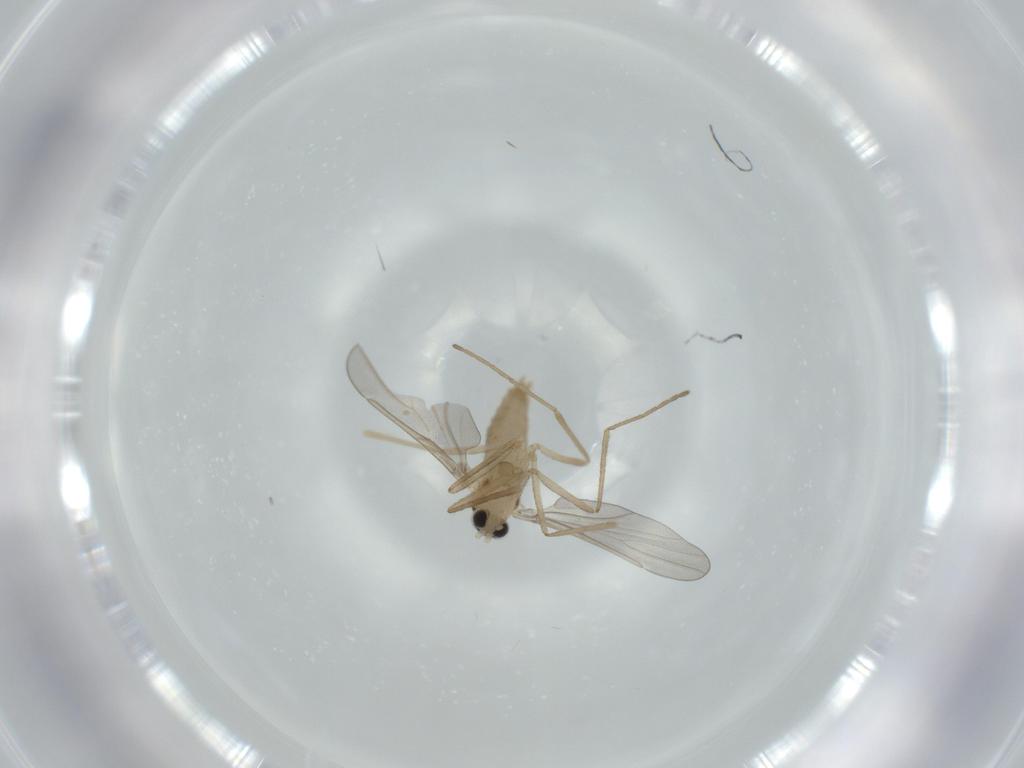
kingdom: Animalia
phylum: Arthropoda
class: Insecta
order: Diptera
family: Cecidomyiidae
